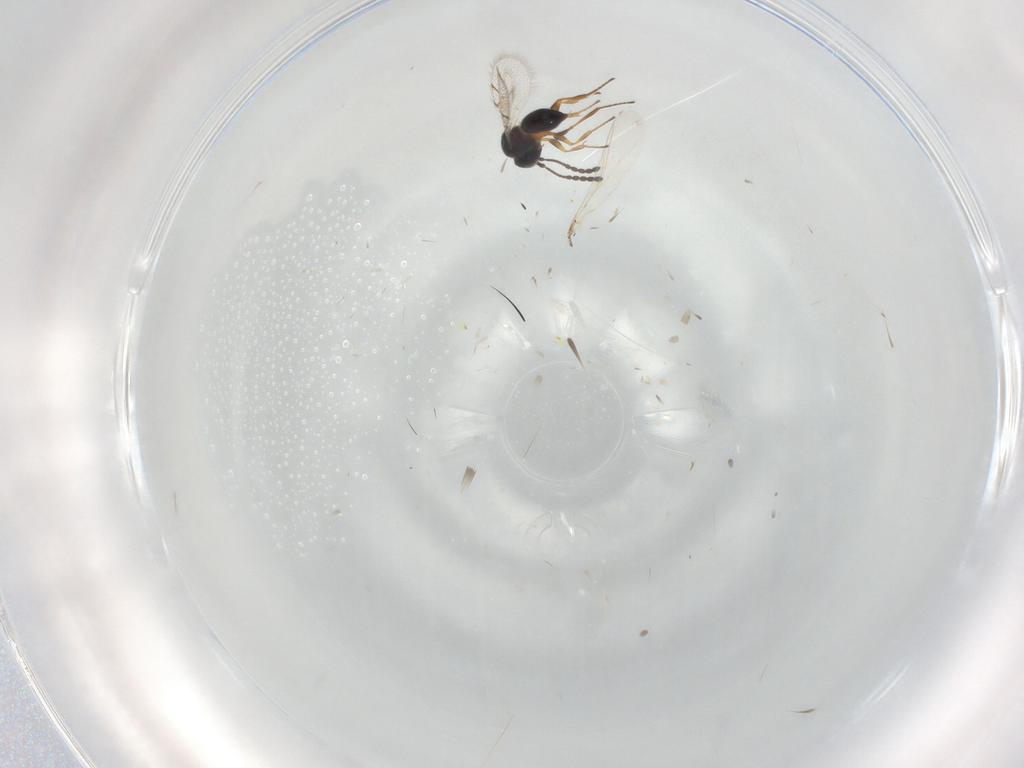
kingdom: Animalia
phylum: Arthropoda
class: Insecta
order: Hymenoptera
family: Figitidae
